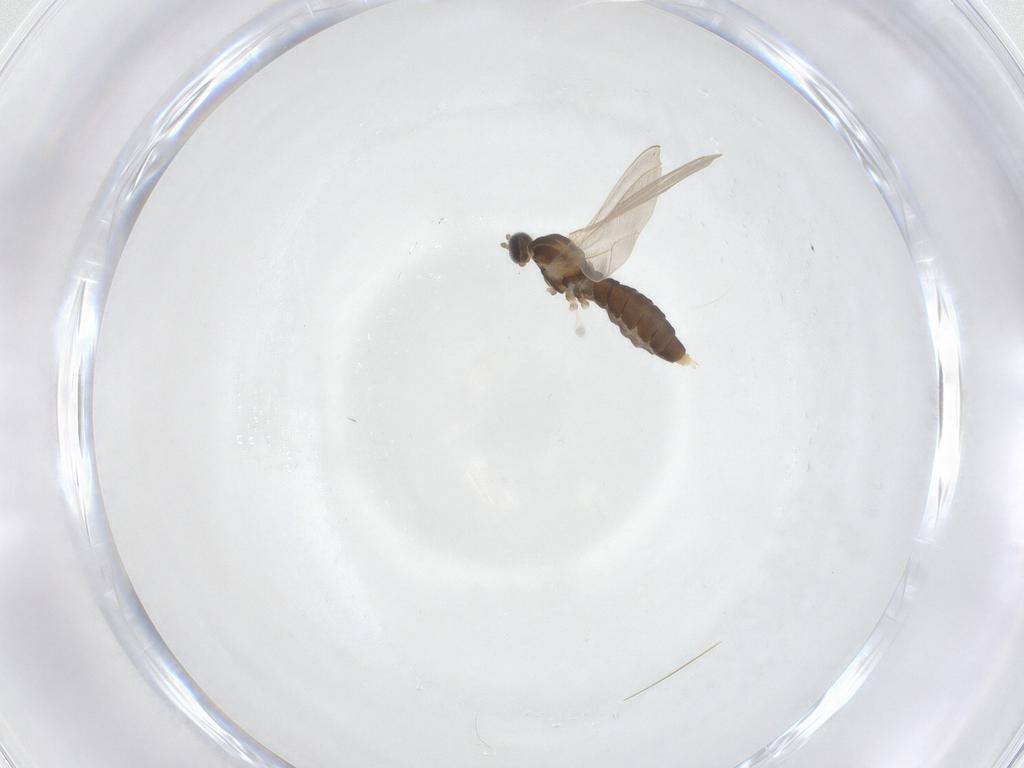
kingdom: Animalia
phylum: Arthropoda
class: Insecta
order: Diptera
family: Cecidomyiidae
